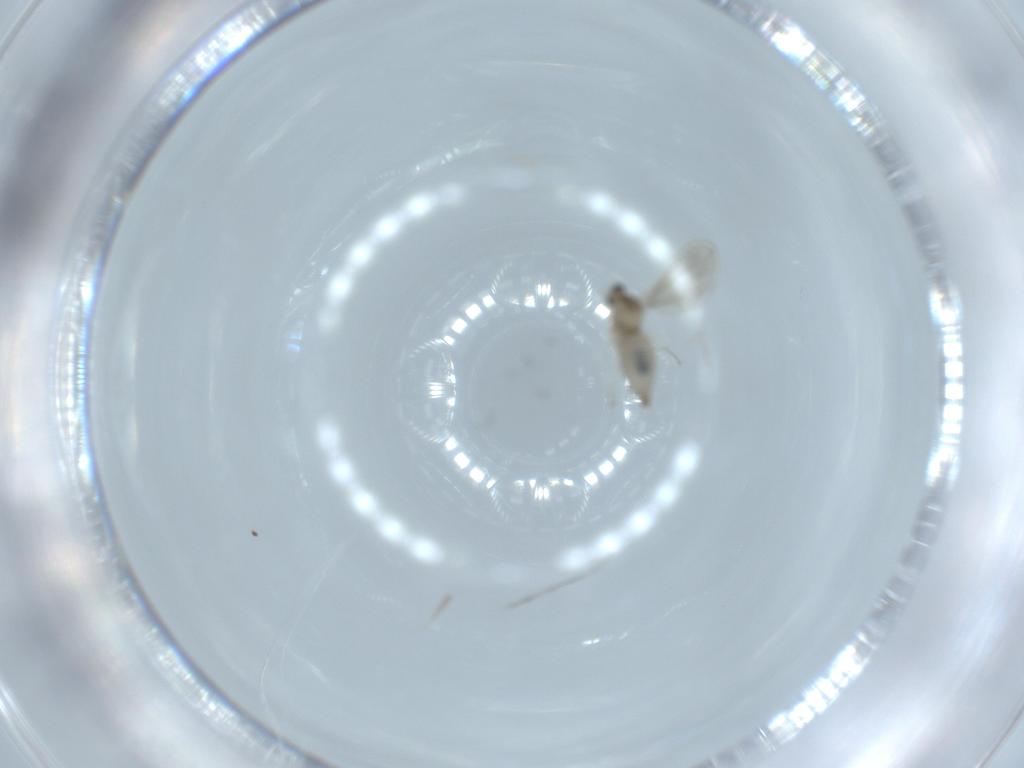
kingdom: Animalia
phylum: Arthropoda
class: Insecta
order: Diptera
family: Cecidomyiidae
